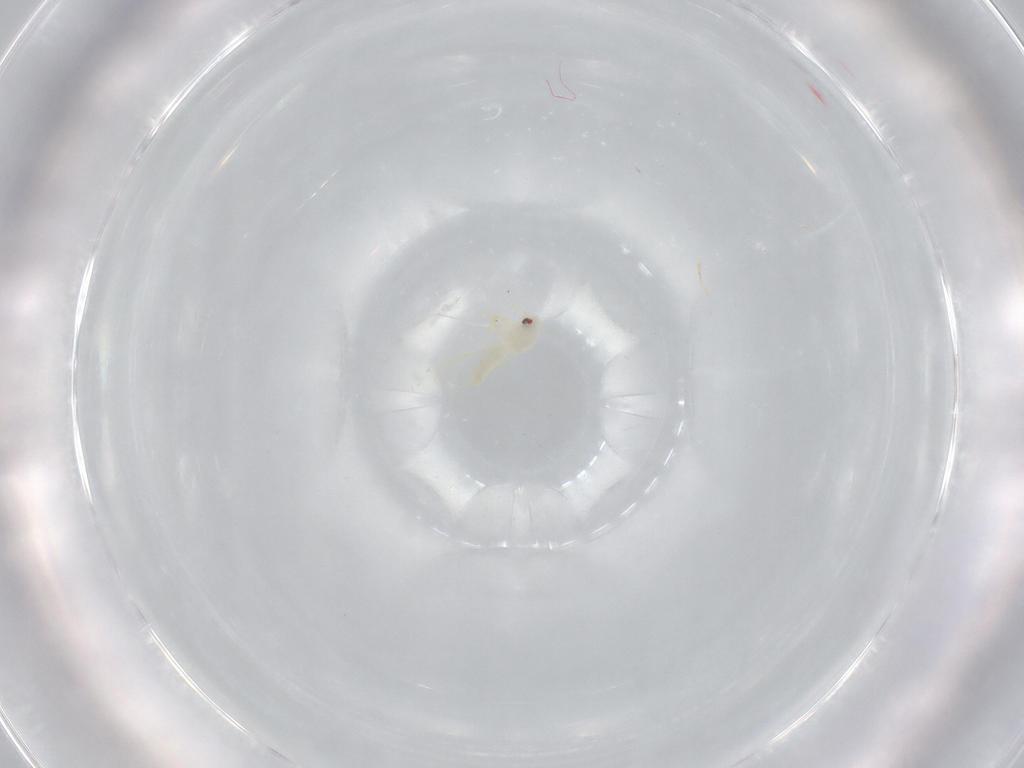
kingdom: Animalia
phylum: Arthropoda
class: Insecta
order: Hemiptera
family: Aleyrodidae
